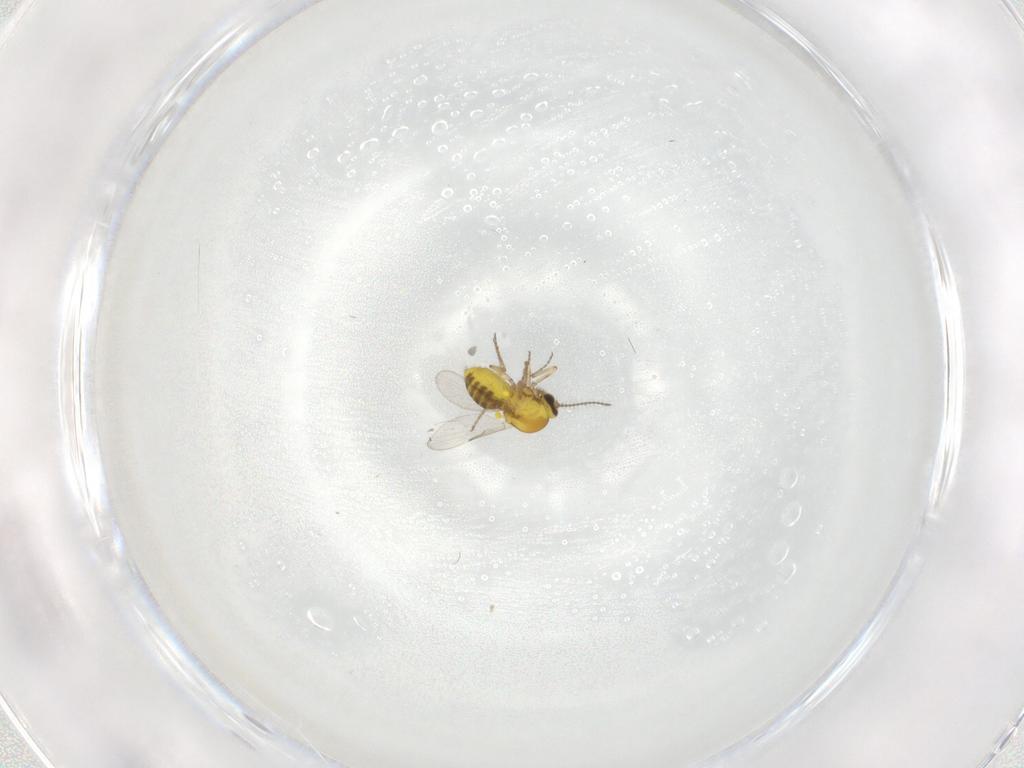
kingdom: Animalia
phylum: Arthropoda
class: Insecta
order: Diptera
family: Ceratopogonidae
